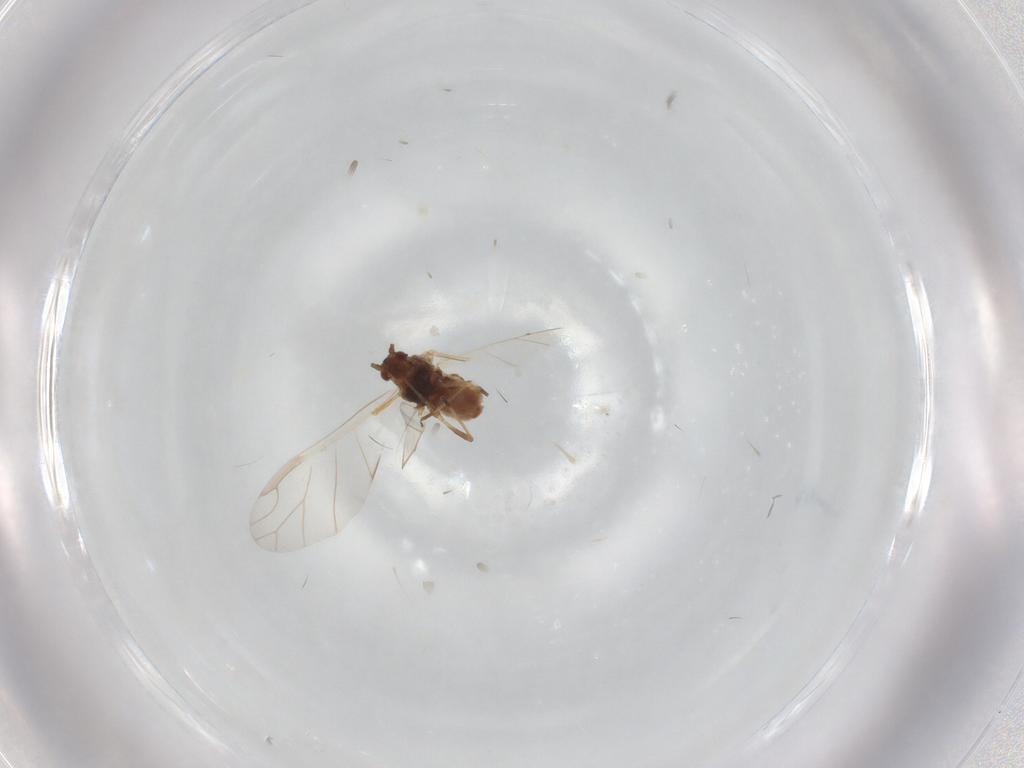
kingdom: Animalia
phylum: Arthropoda
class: Insecta
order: Hemiptera
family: Aphididae
